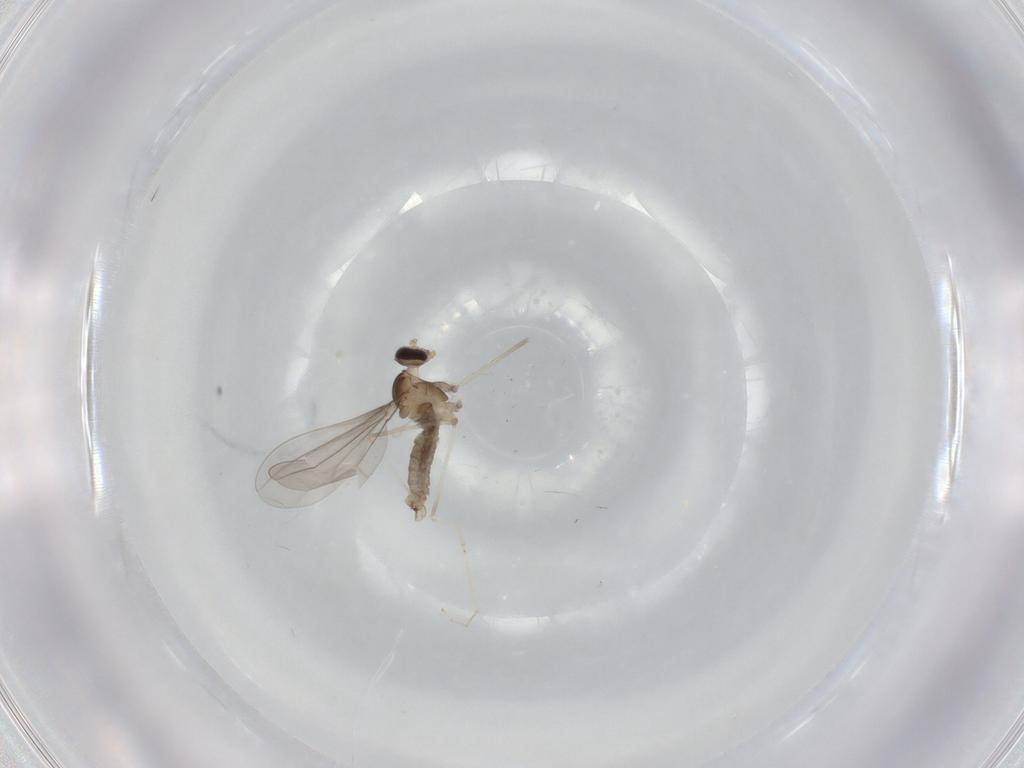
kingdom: Animalia
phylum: Arthropoda
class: Insecta
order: Diptera
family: Cecidomyiidae
